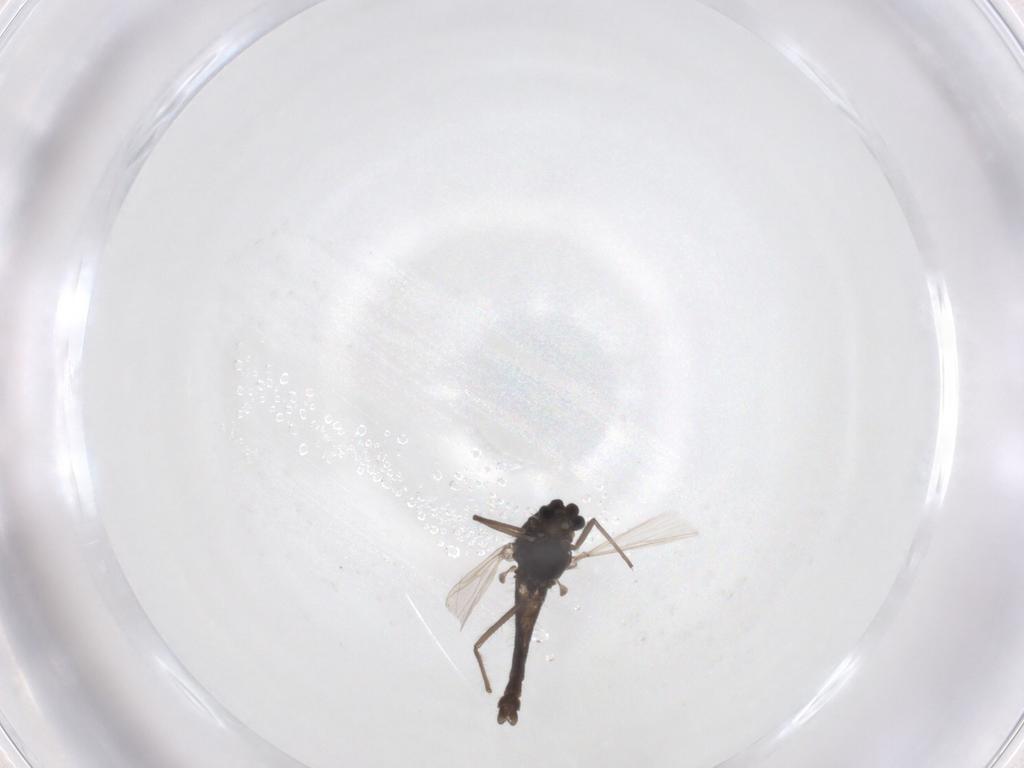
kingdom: Animalia
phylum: Arthropoda
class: Insecta
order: Diptera
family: Chironomidae
